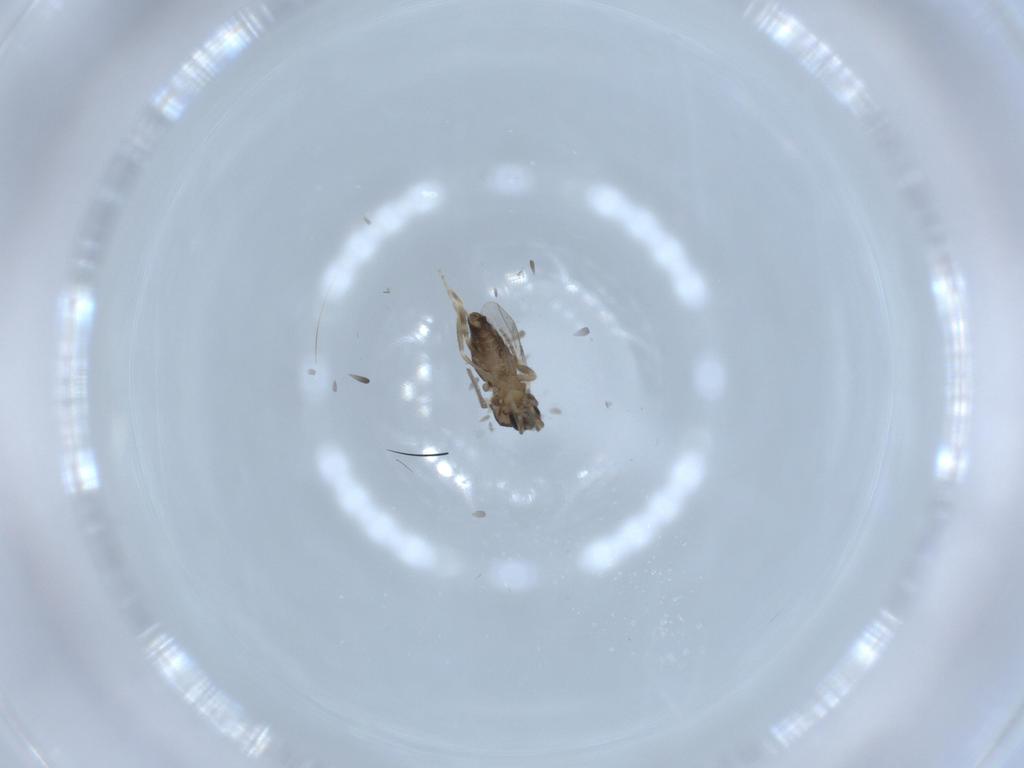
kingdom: Animalia
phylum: Arthropoda
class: Insecta
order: Diptera
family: Ceratopogonidae
